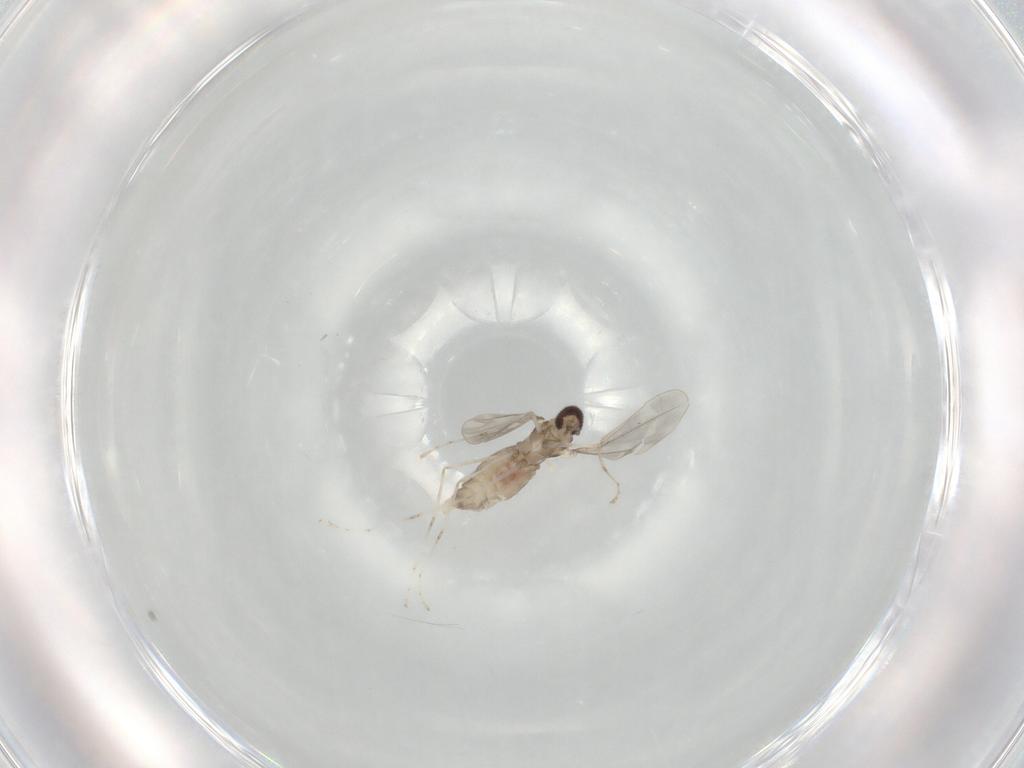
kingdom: Animalia
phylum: Arthropoda
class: Insecta
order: Diptera
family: Cecidomyiidae
